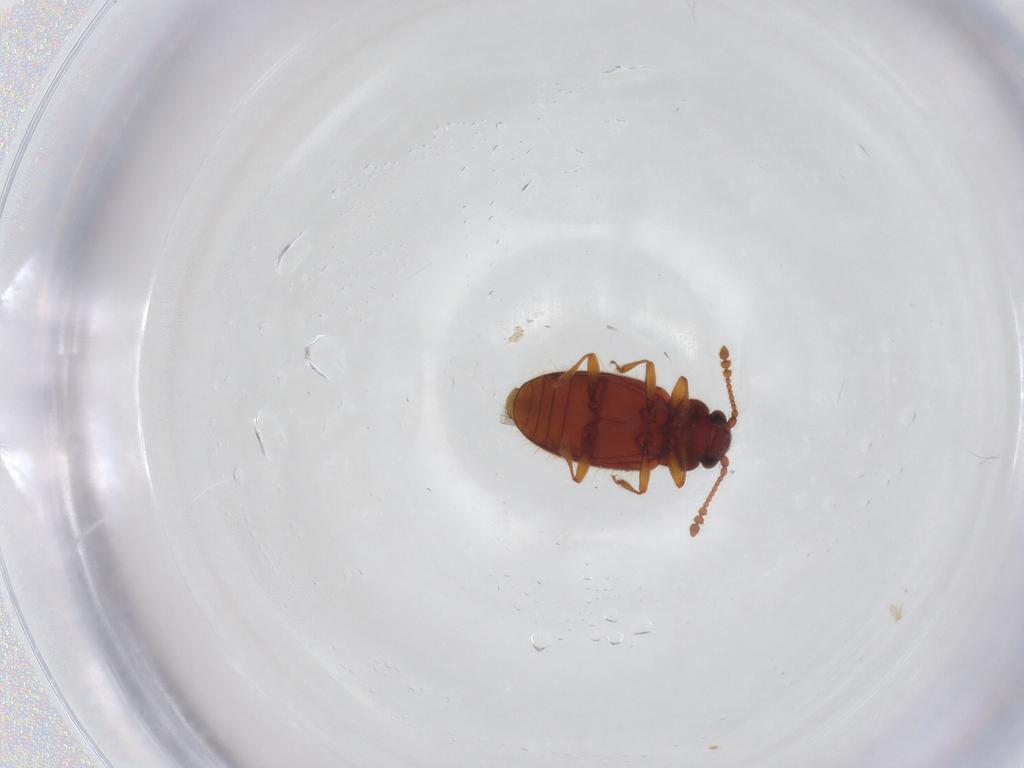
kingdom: Animalia
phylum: Arthropoda
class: Insecta
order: Coleoptera
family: Cryptophagidae
